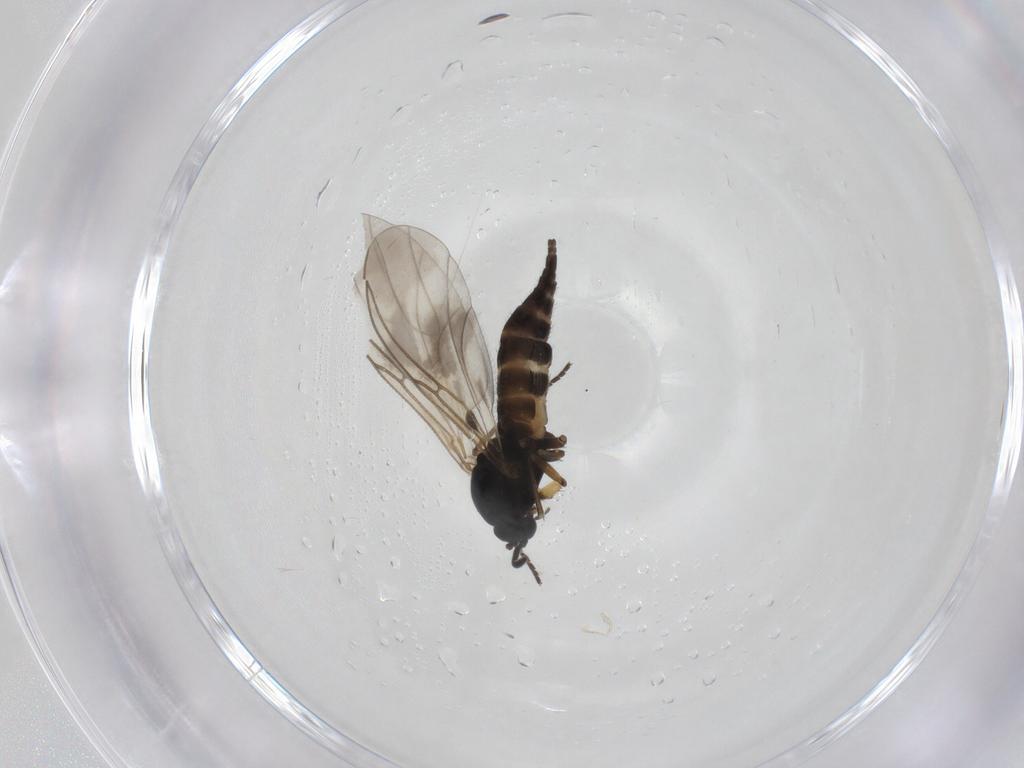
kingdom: Animalia
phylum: Arthropoda
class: Insecta
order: Diptera
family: Sciaridae
